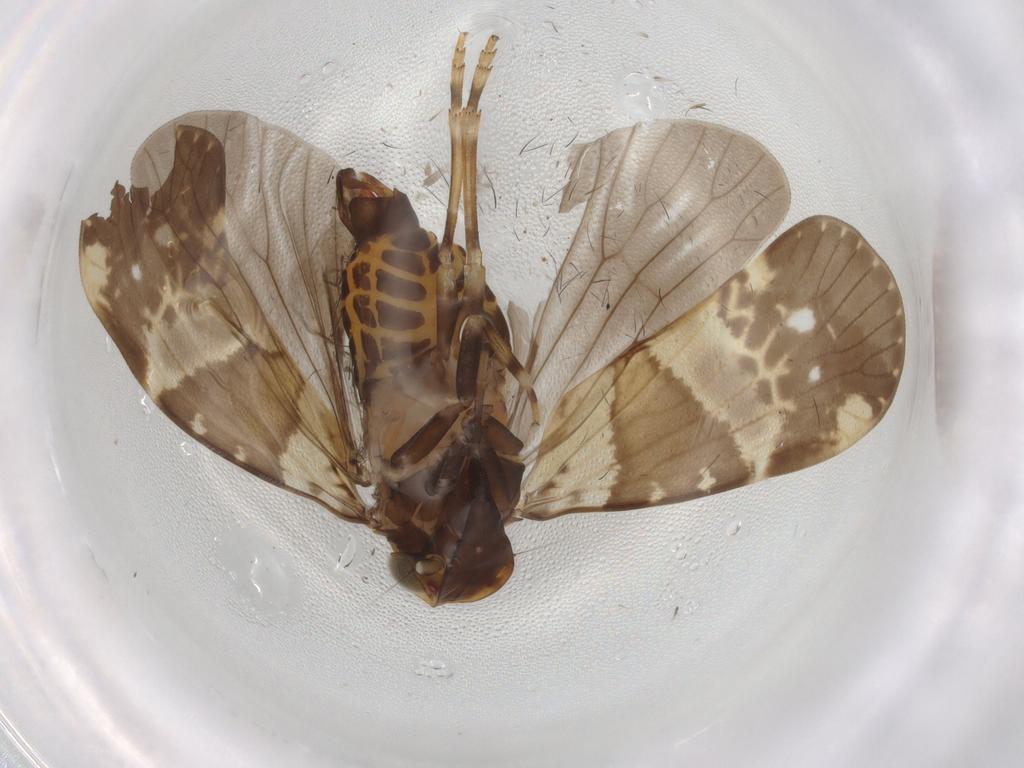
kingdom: Animalia
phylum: Arthropoda
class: Insecta
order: Hemiptera
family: Cixiidae
